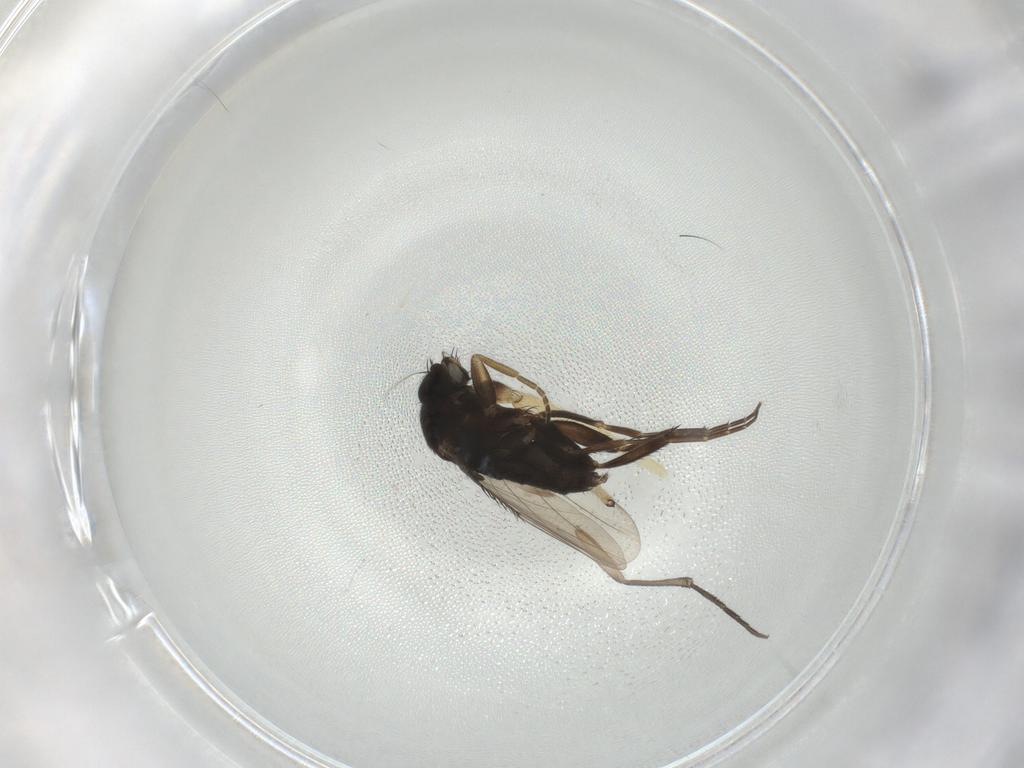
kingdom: Animalia
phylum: Arthropoda
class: Insecta
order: Diptera
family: Phoridae
